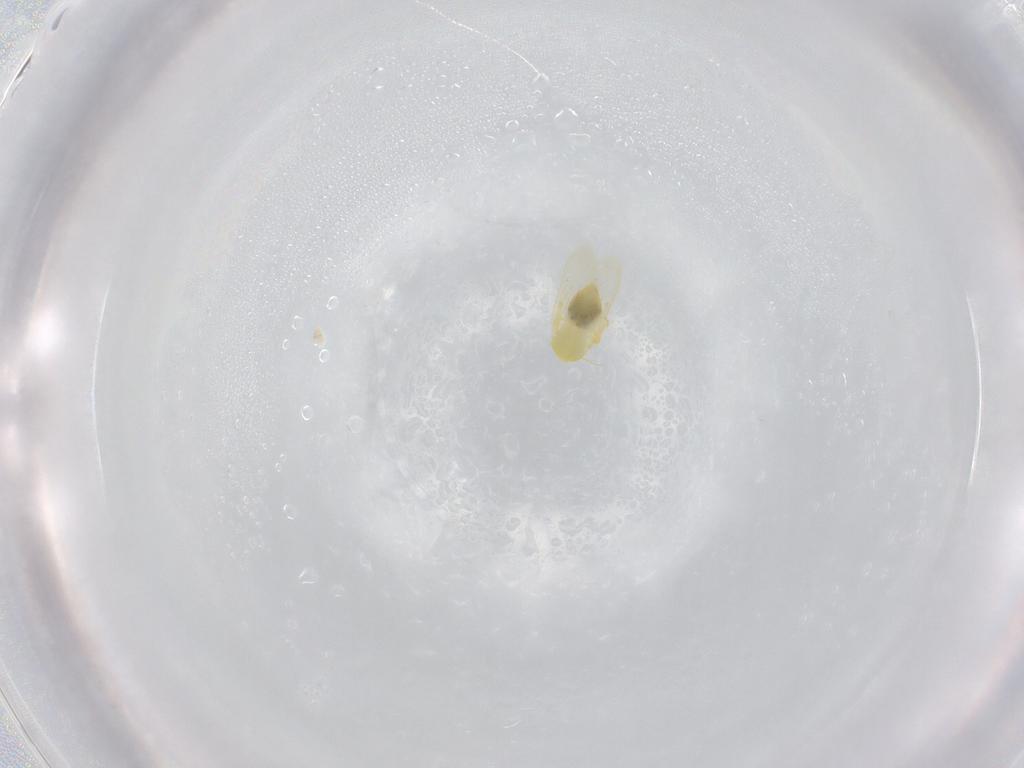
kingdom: Animalia
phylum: Arthropoda
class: Insecta
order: Hemiptera
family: Aleyrodidae
